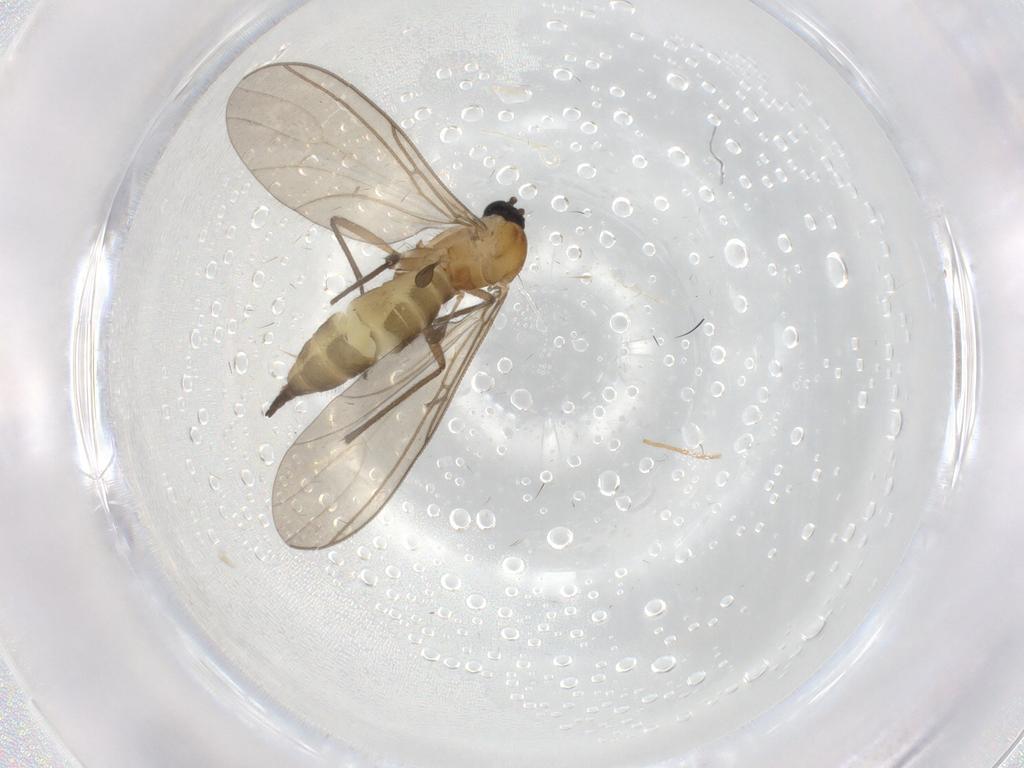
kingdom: Animalia
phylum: Arthropoda
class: Insecta
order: Diptera
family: Sciaridae
